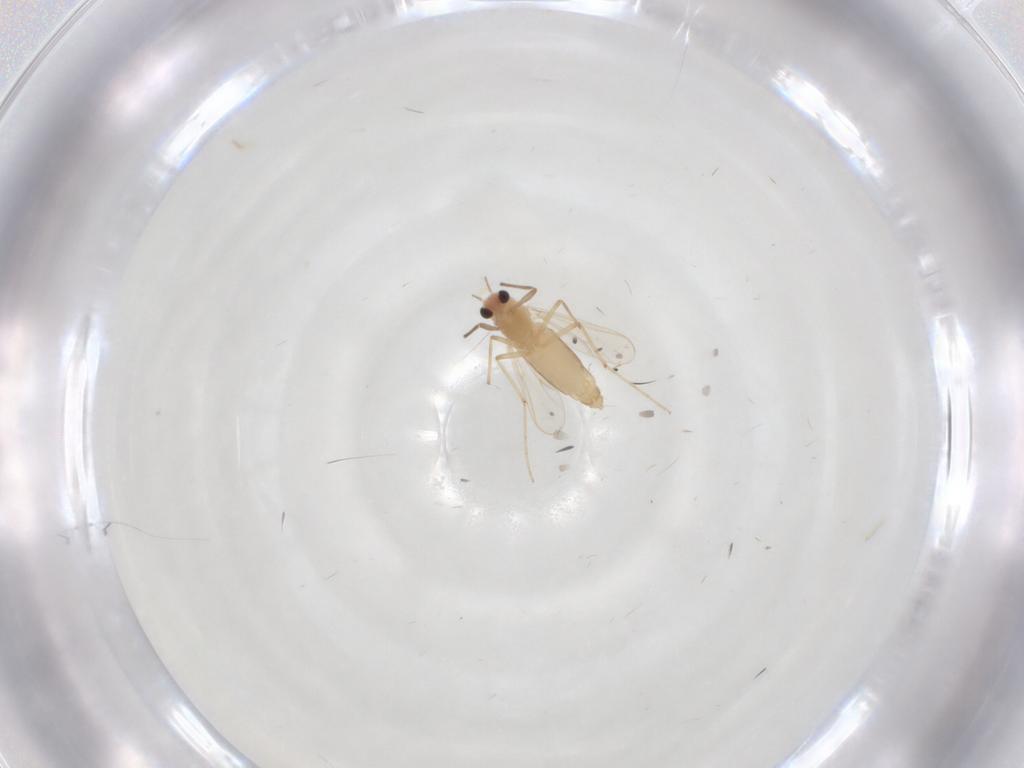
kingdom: Animalia
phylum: Arthropoda
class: Insecta
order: Diptera
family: Chironomidae
